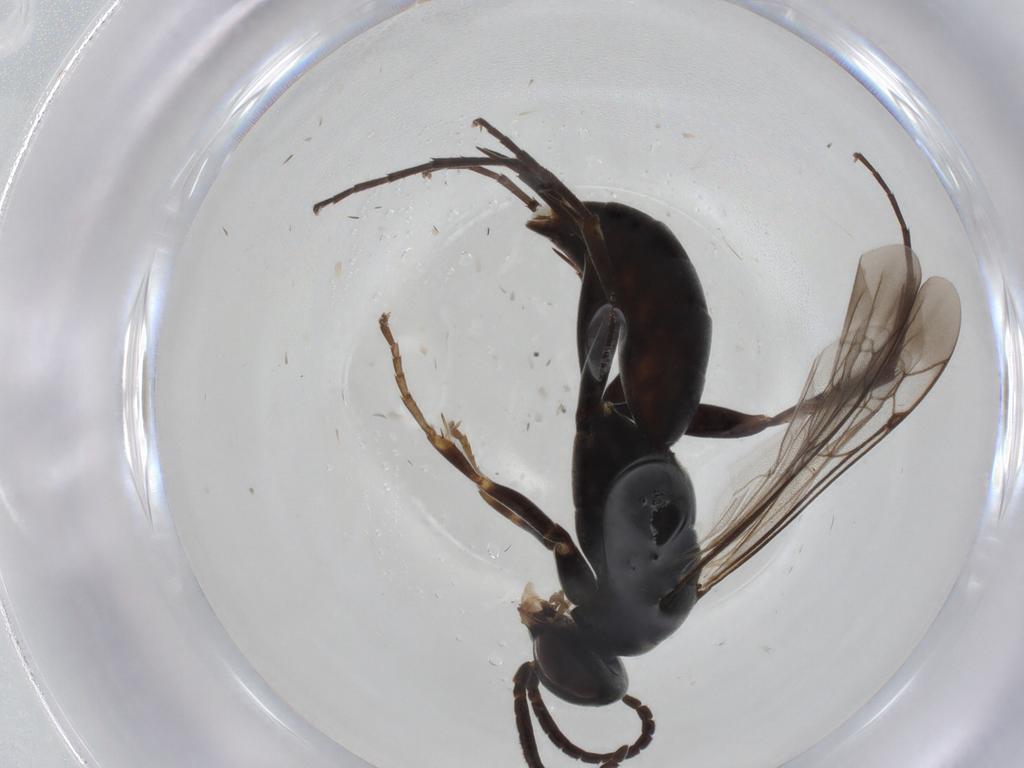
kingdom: Animalia
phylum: Arthropoda
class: Insecta
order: Hymenoptera
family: Pompilidae
